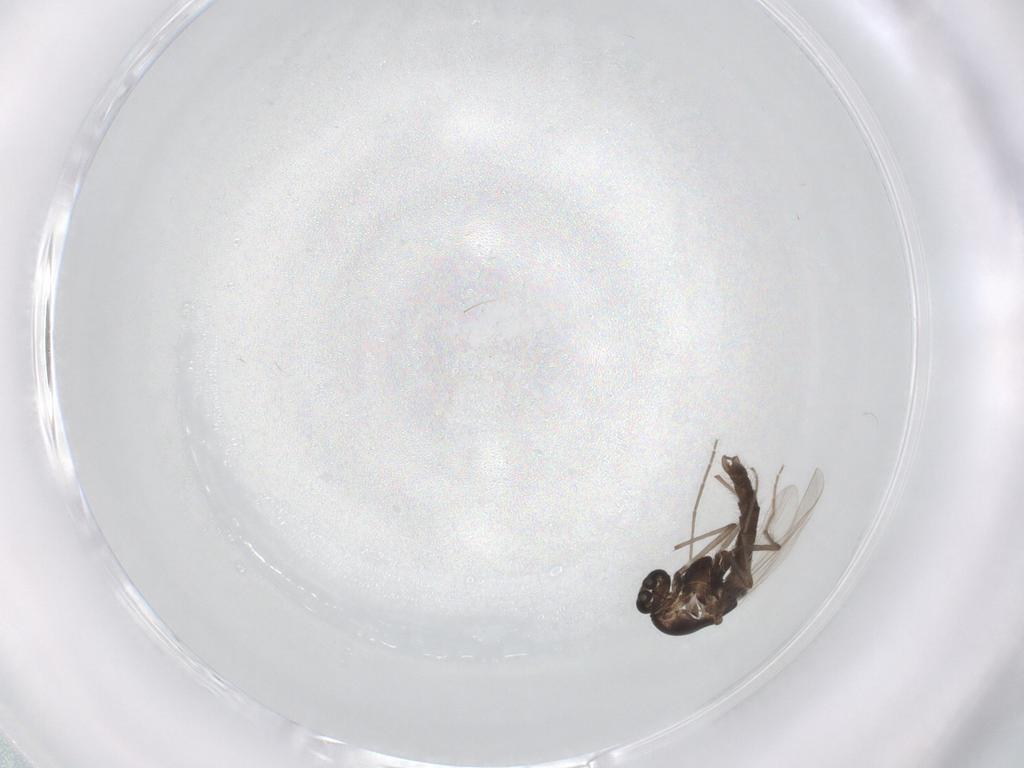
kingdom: Animalia
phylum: Arthropoda
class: Insecta
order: Diptera
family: Chironomidae
